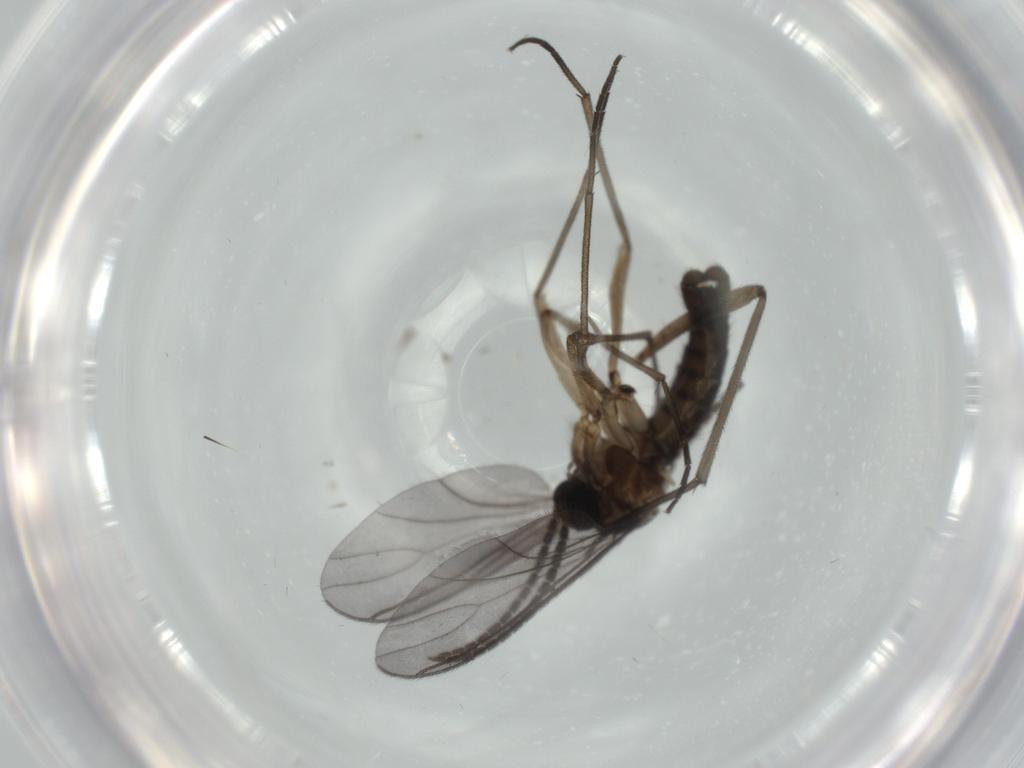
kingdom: Animalia
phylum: Arthropoda
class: Insecta
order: Diptera
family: Sciaridae
